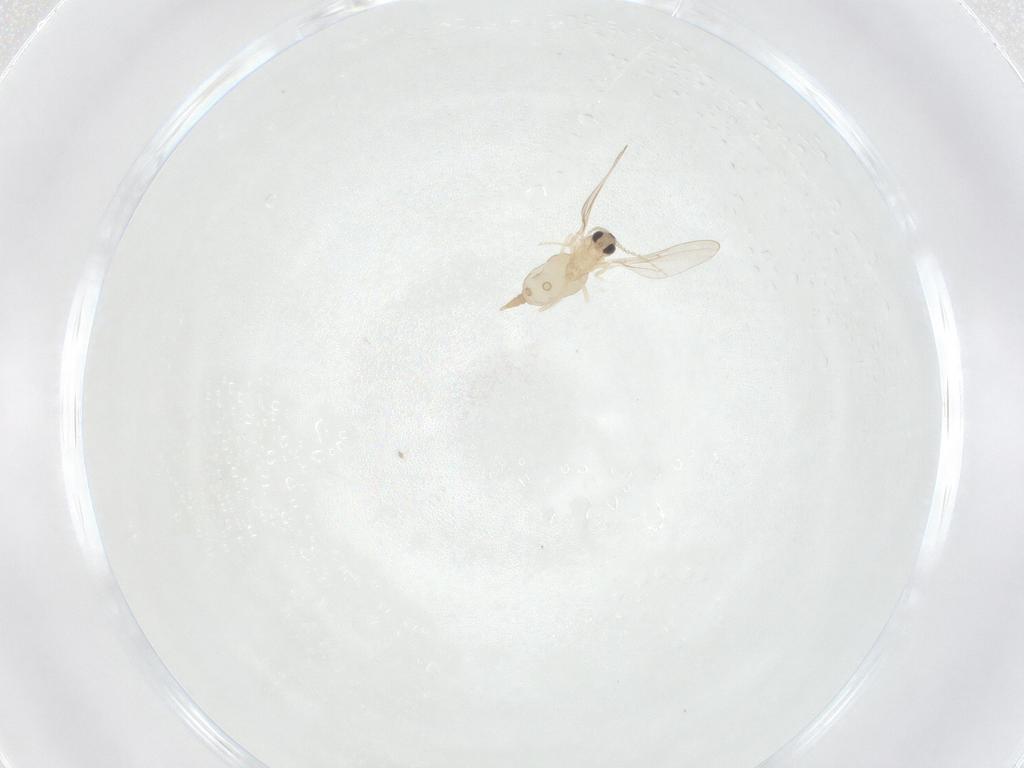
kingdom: Animalia
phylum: Arthropoda
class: Insecta
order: Diptera
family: Cecidomyiidae
